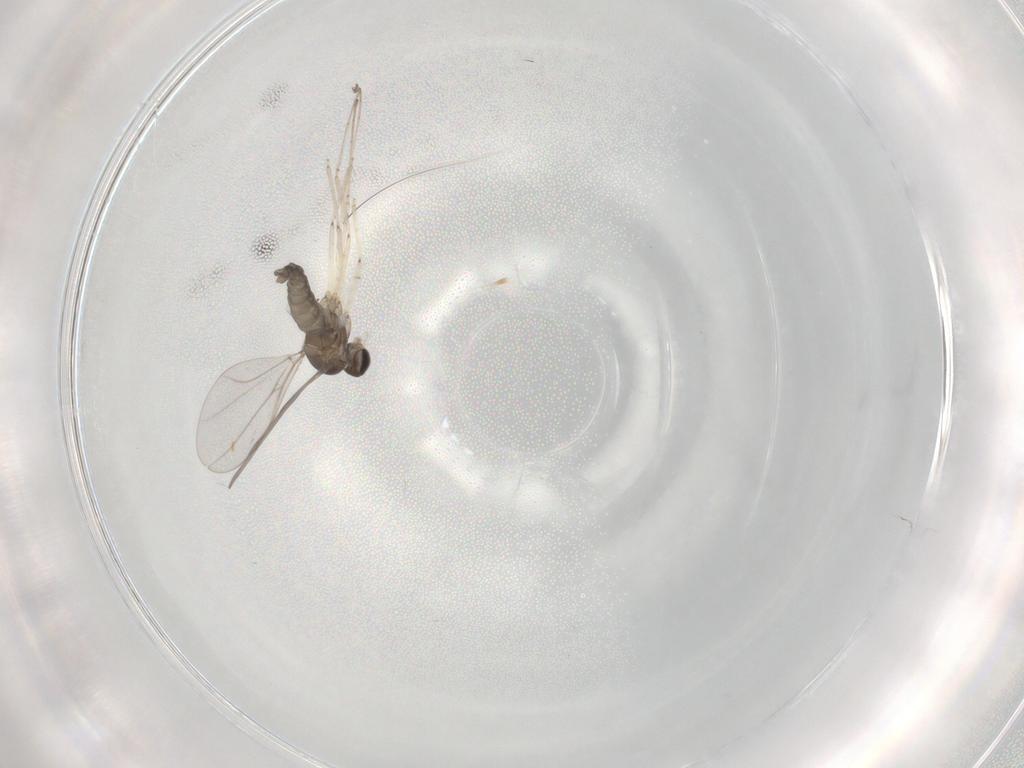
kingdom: Animalia
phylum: Arthropoda
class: Insecta
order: Diptera
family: Cecidomyiidae
